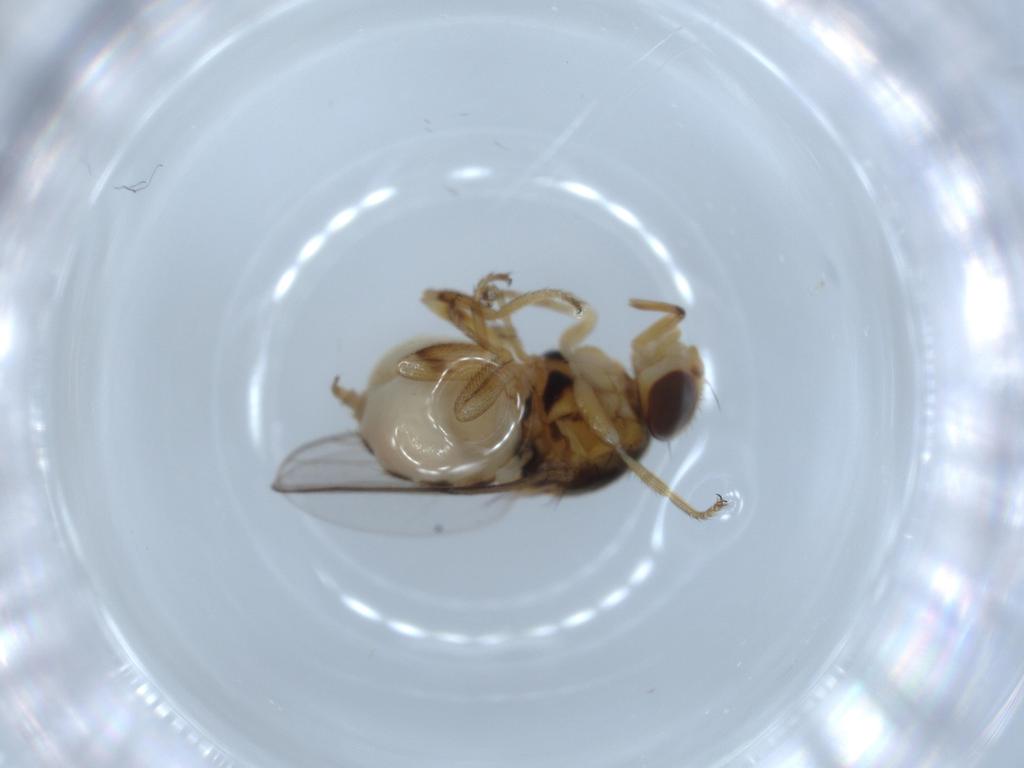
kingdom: Animalia
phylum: Arthropoda
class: Insecta
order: Diptera
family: Chloropidae
